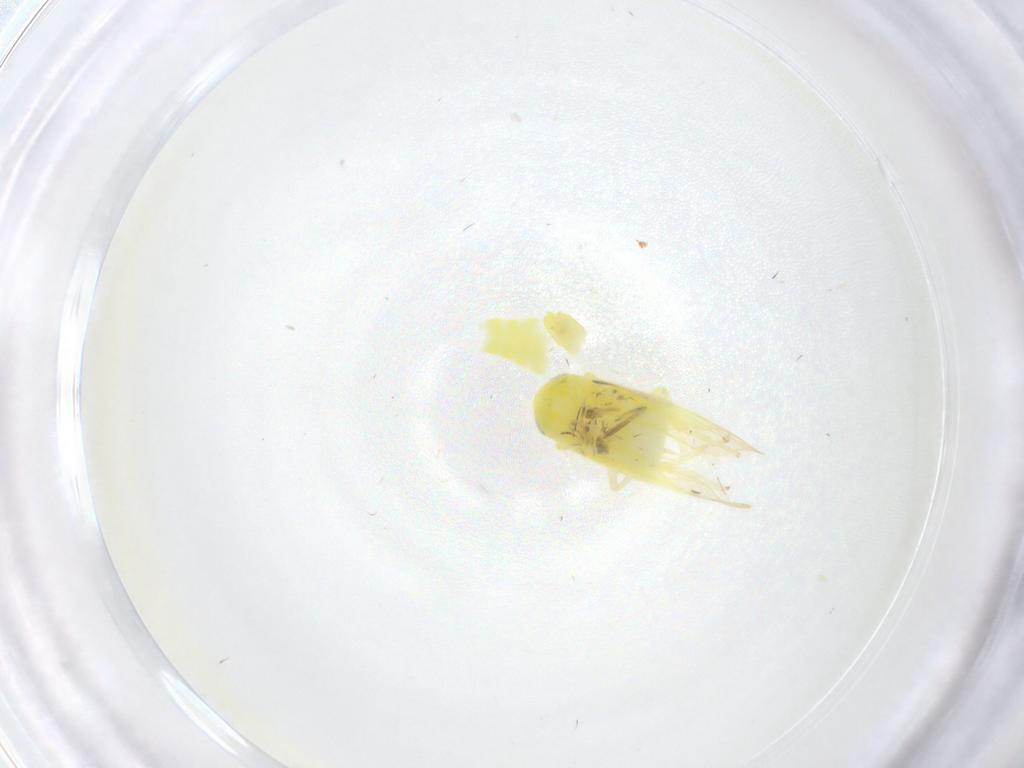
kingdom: Animalia
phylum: Arthropoda
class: Insecta
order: Hemiptera
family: Cicadellidae
